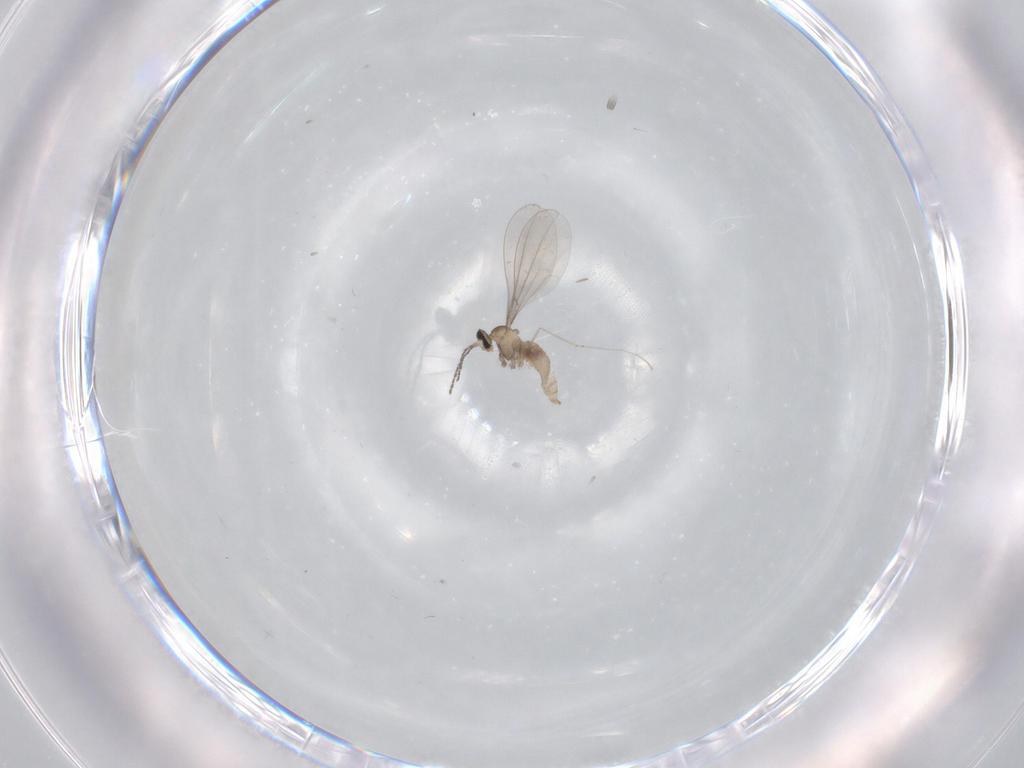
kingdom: Animalia
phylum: Arthropoda
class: Insecta
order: Diptera
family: Cecidomyiidae
